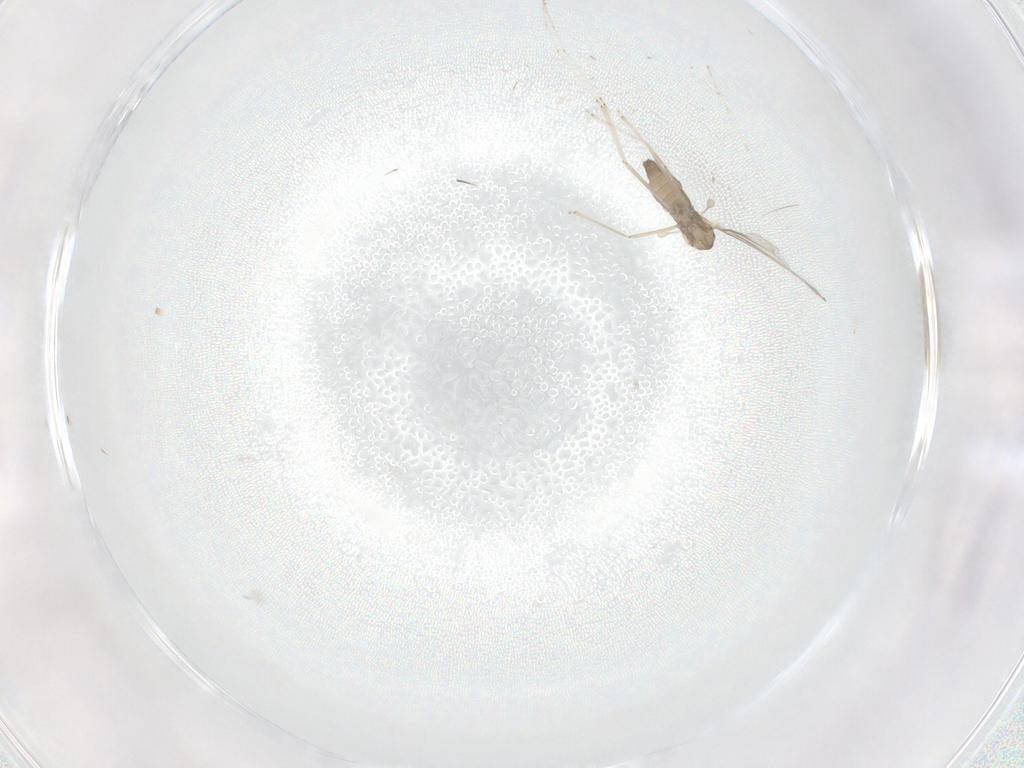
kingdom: Animalia
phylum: Arthropoda
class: Insecta
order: Diptera
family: Cecidomyiidae
